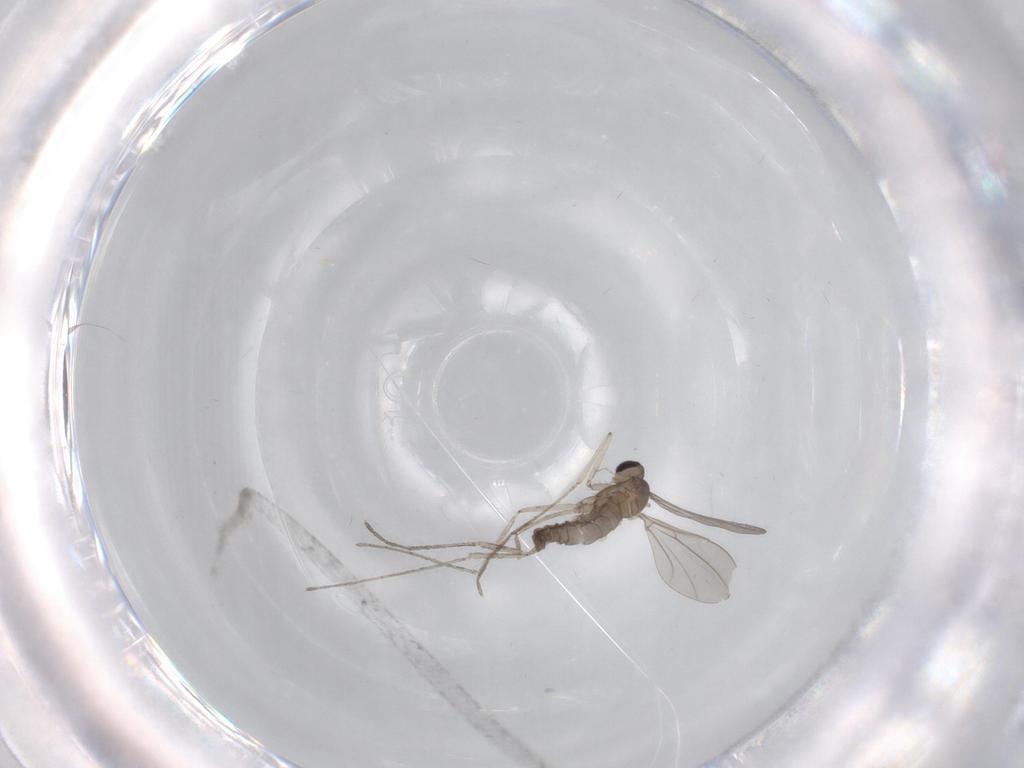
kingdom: Animalia
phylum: Arthropoda
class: Insecta
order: Diptera
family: Cecidomyiidae
